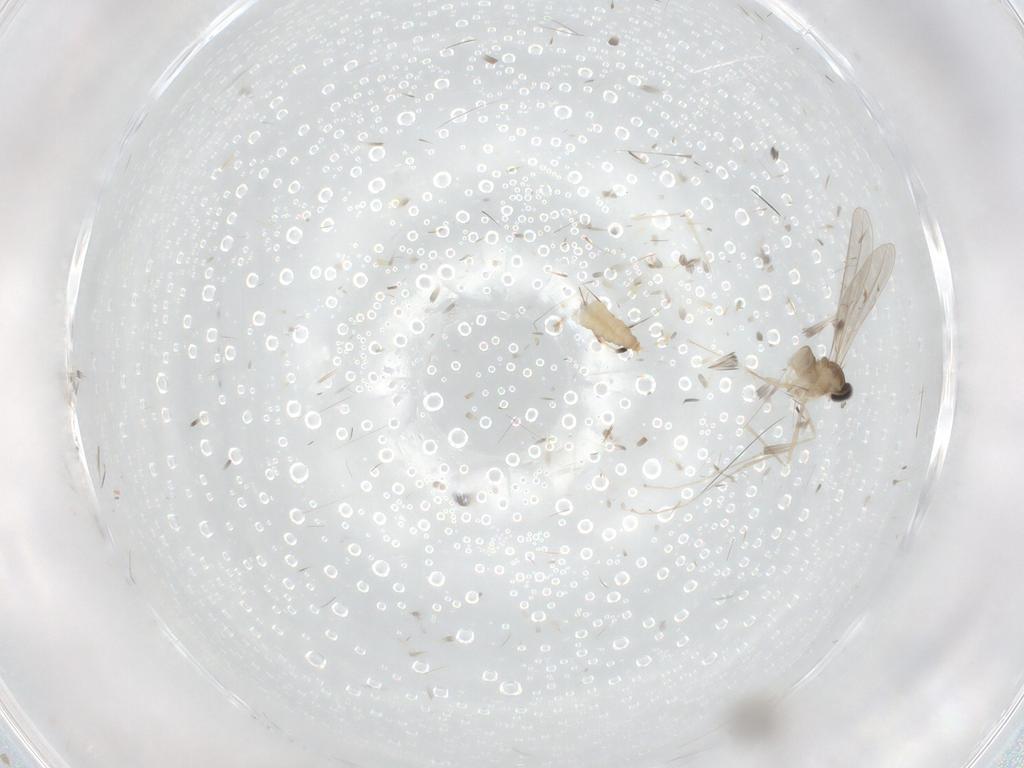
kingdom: Animalia
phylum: Arthropoda
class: Insecta
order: Diptera
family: Cecidomyiidae
